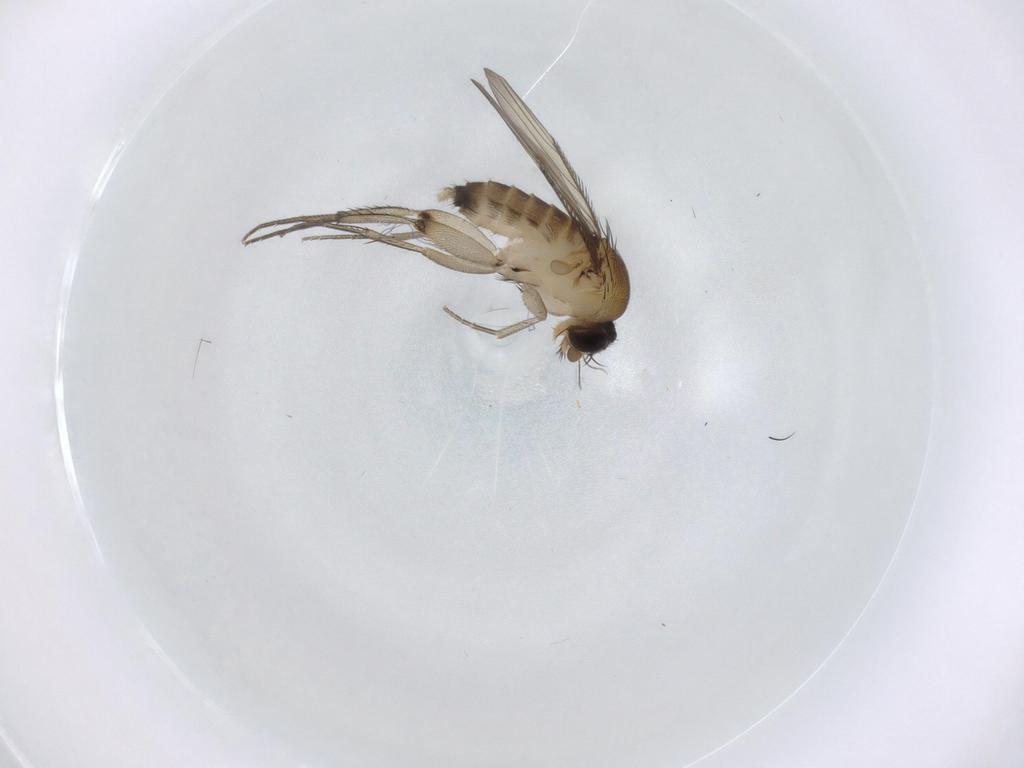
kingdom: Animalia
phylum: Arthropoda
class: Insecta
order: Diptera
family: Phoridae
